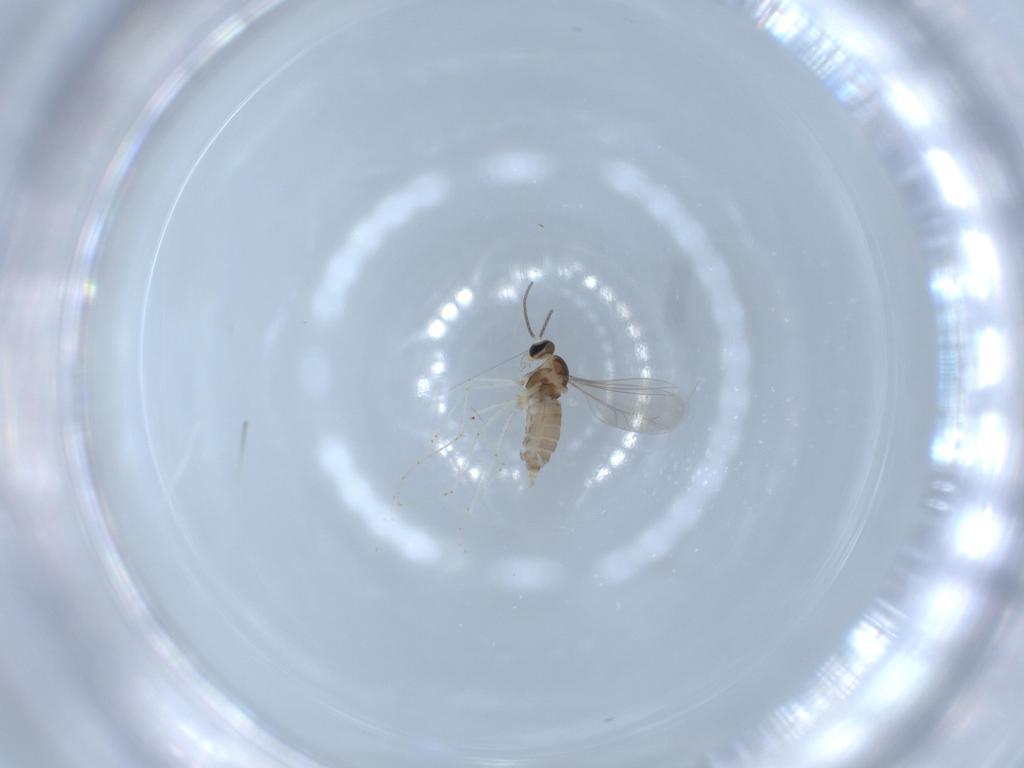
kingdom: Animalia
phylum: Arthropoda
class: Insecta
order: Diptera
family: Cecidomyiidae
